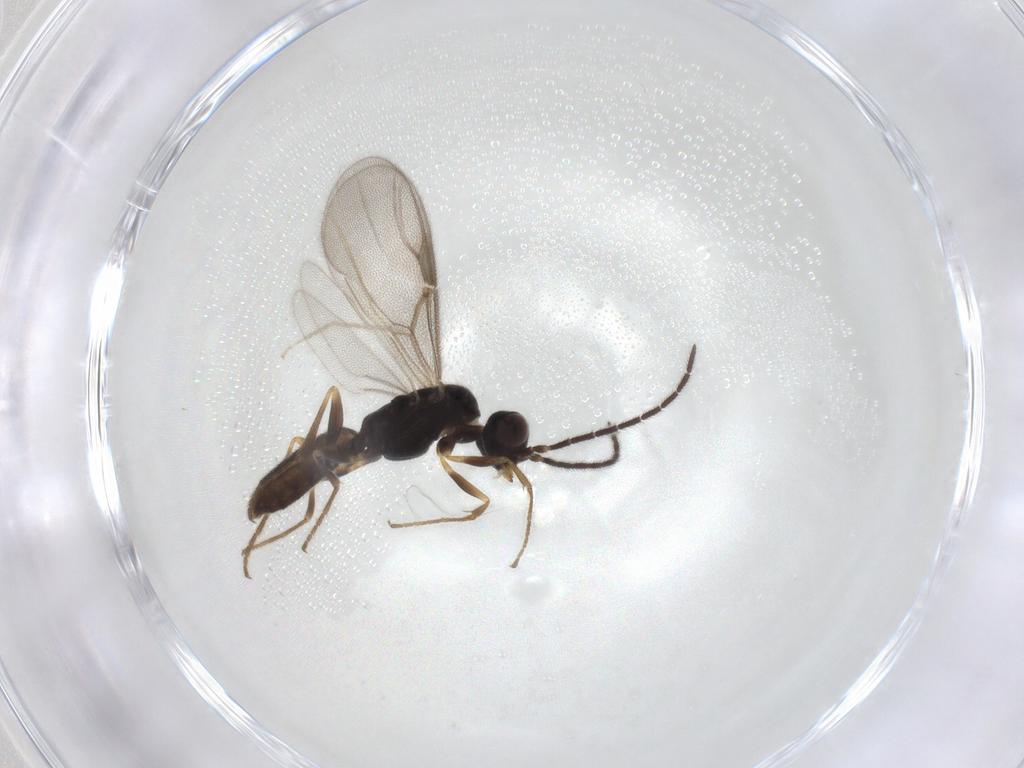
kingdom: Animalia
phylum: Arthropoda
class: Insecta
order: Hymenoptera
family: Dryinidae
